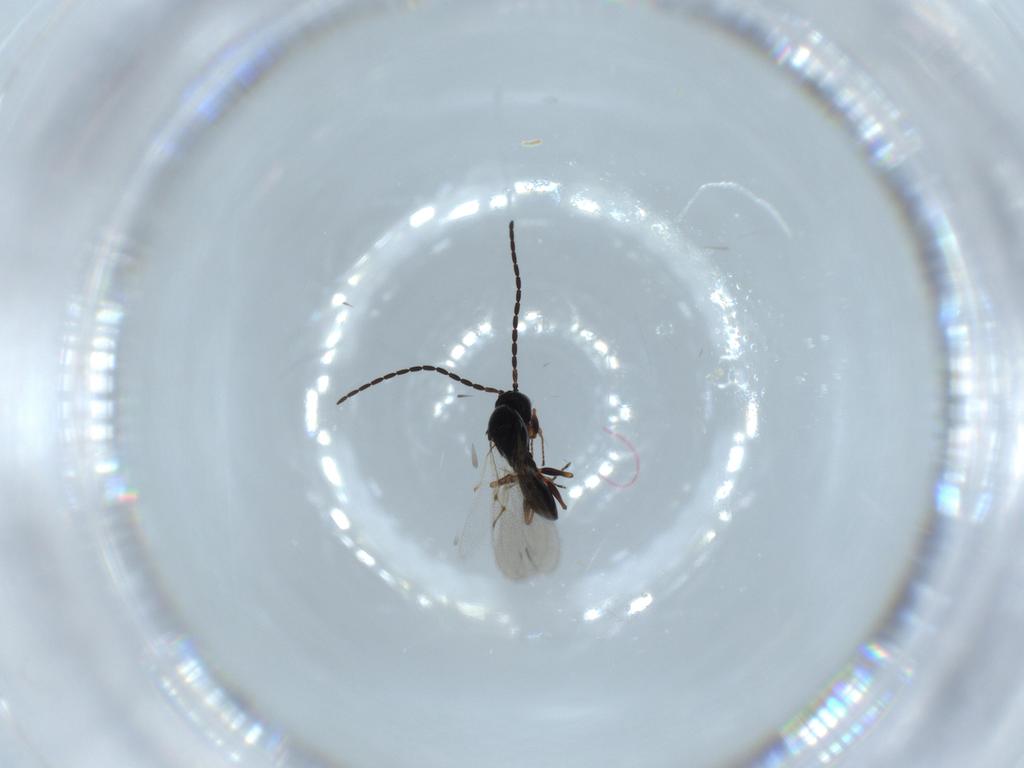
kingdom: Animalia
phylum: Arthropoda
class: Insecta
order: Hymenoptera
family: Figitidae
